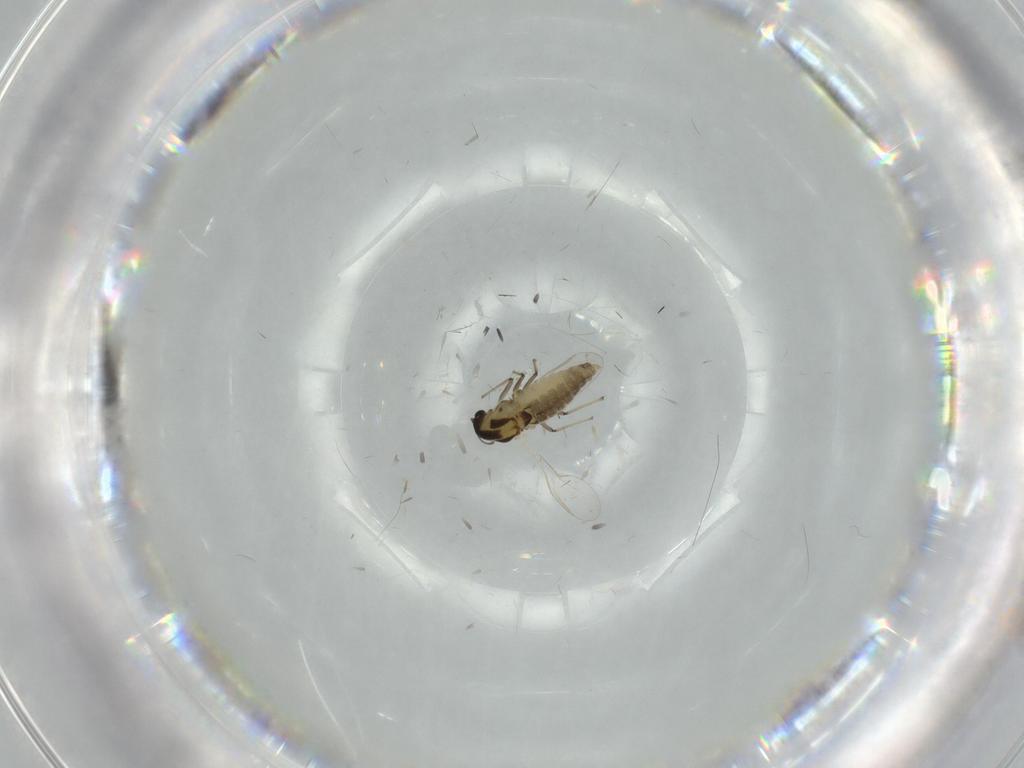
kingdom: Animalia
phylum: Arthropoda
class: Insecta
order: Diptera
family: Chironomidae
